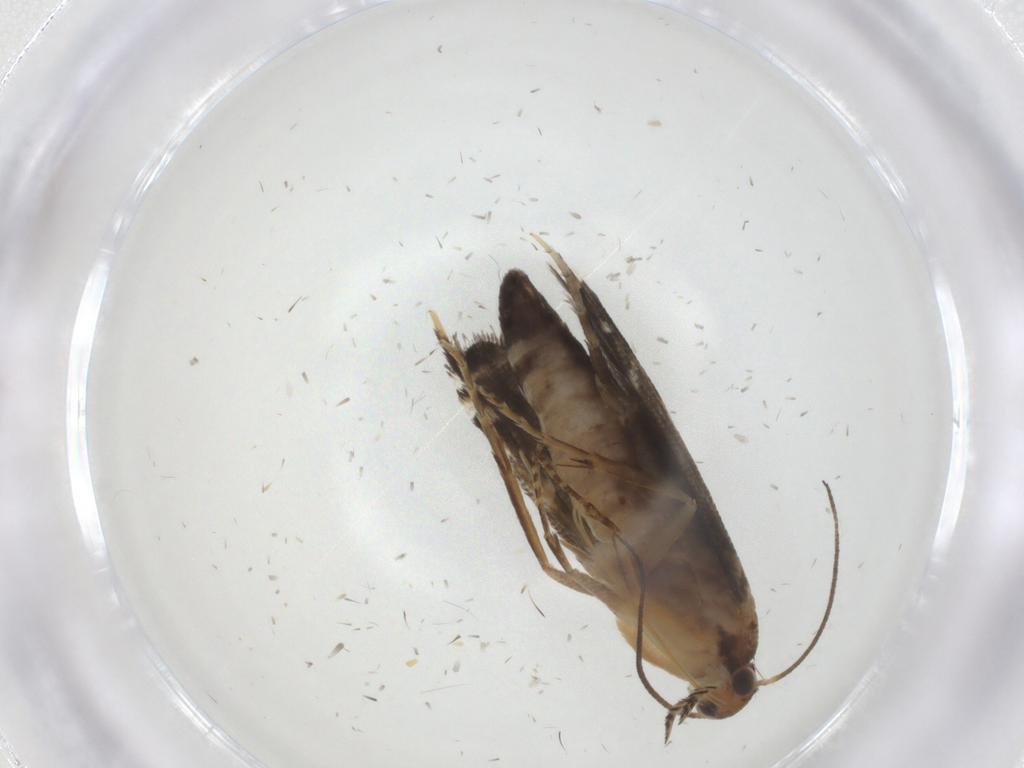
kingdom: Animalia
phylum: Arthropoda
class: Insecta
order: Lepidoptera
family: Glyphipterigidae
